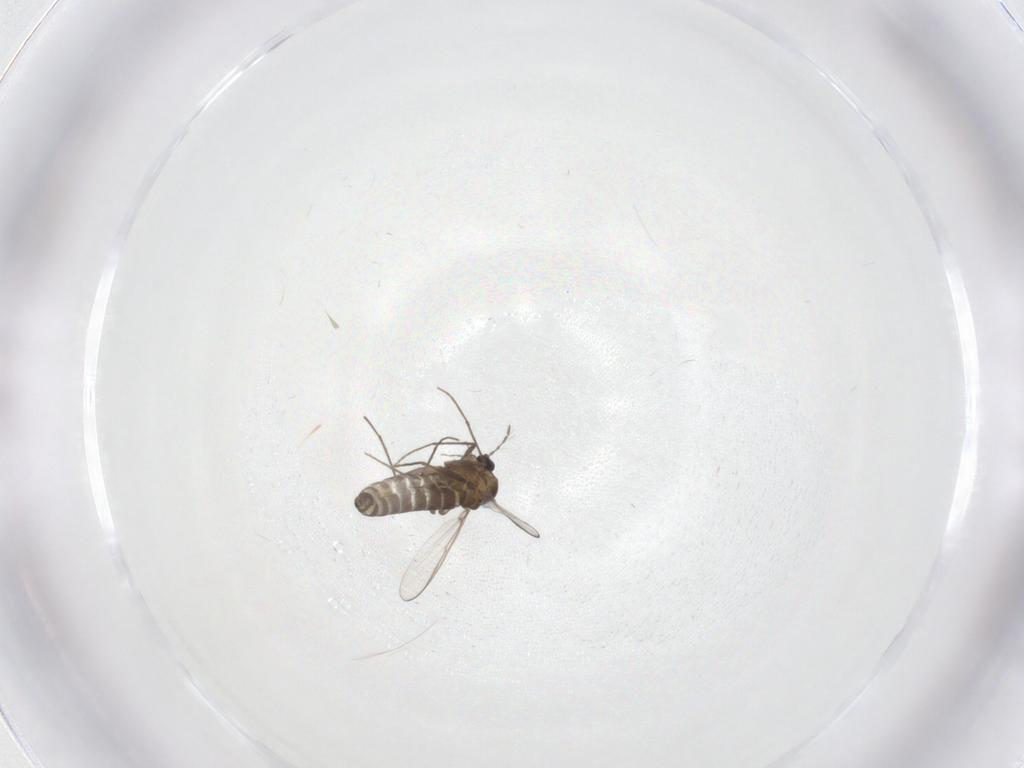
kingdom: Animalia
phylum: Arthropoda
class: Insecta
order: Diptera
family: Chironomidae
